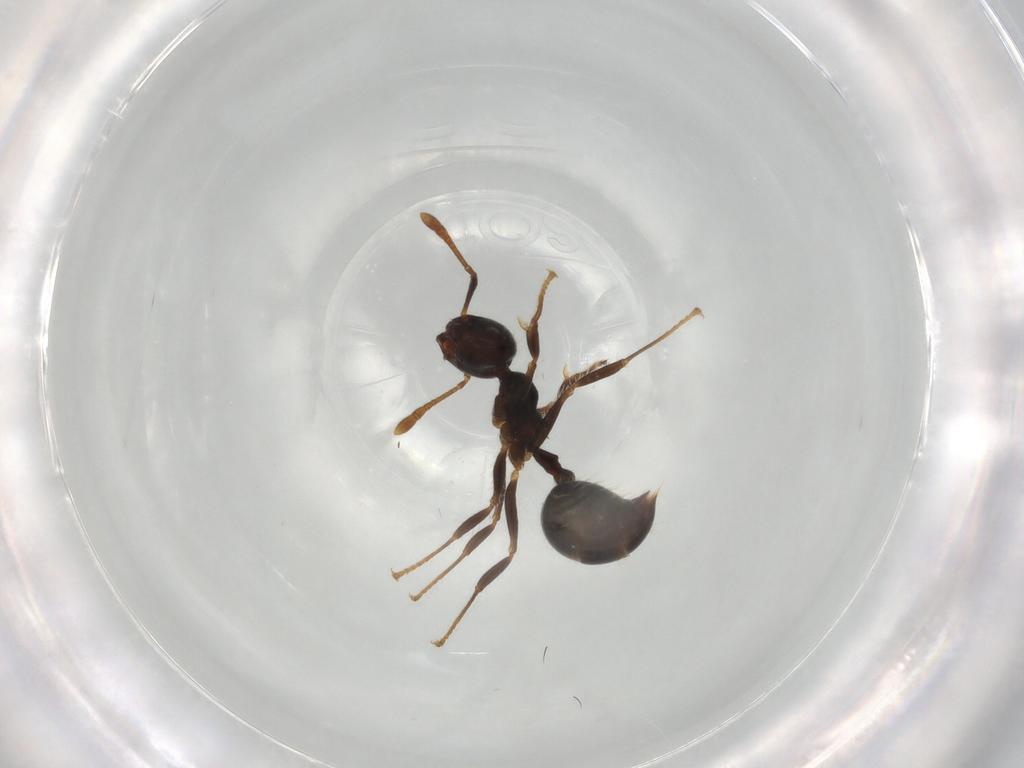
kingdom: Animalia
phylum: Arthropoda
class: Insecta
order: Hymenoptera
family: Formicidae
